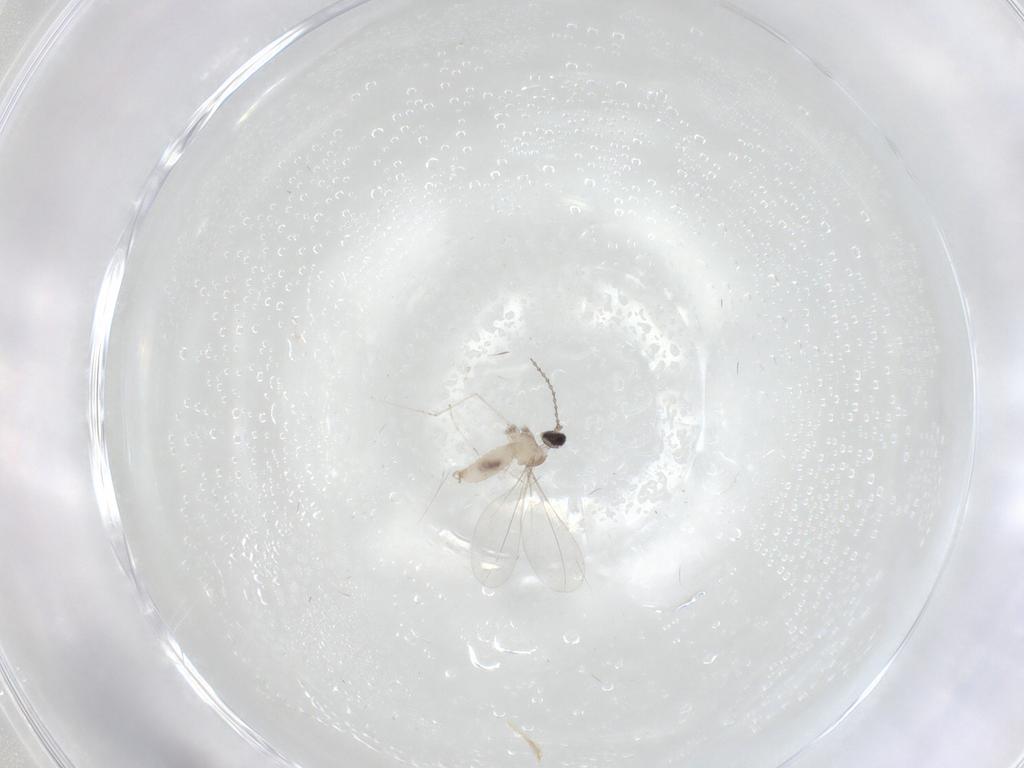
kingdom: Animalia
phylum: Arthropoda
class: Insecta
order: Diptera
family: Cecidomyiidae
